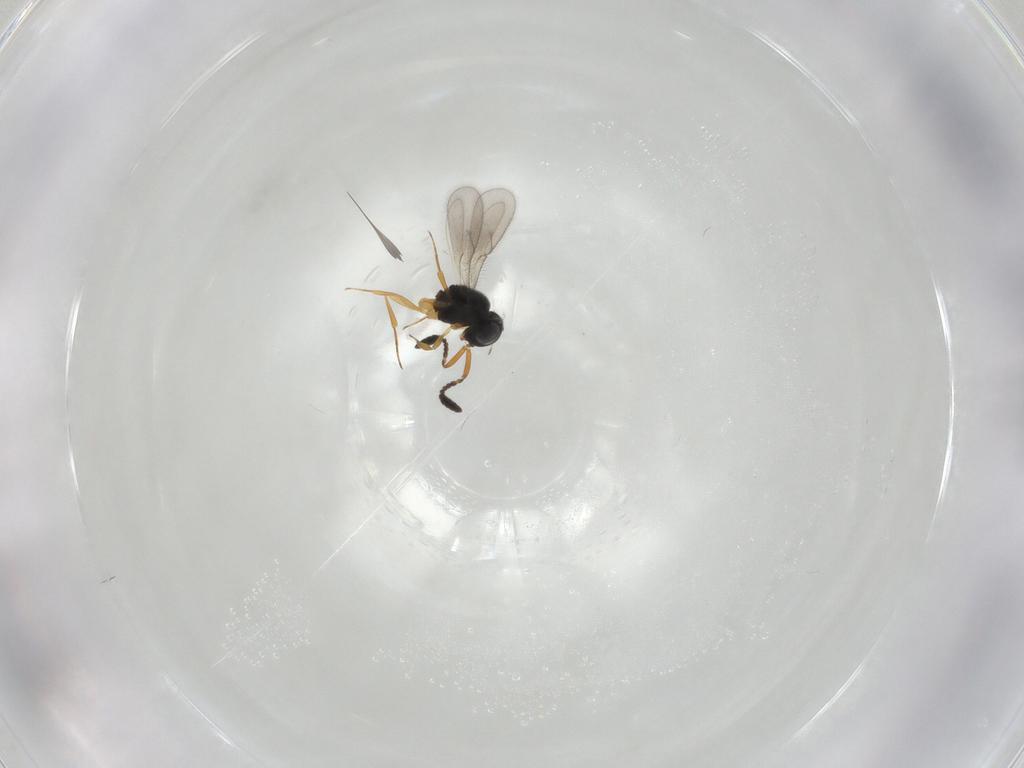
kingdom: Animalia
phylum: Arthropoda
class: Insecta
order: Hymenoptera
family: Scelionidae
